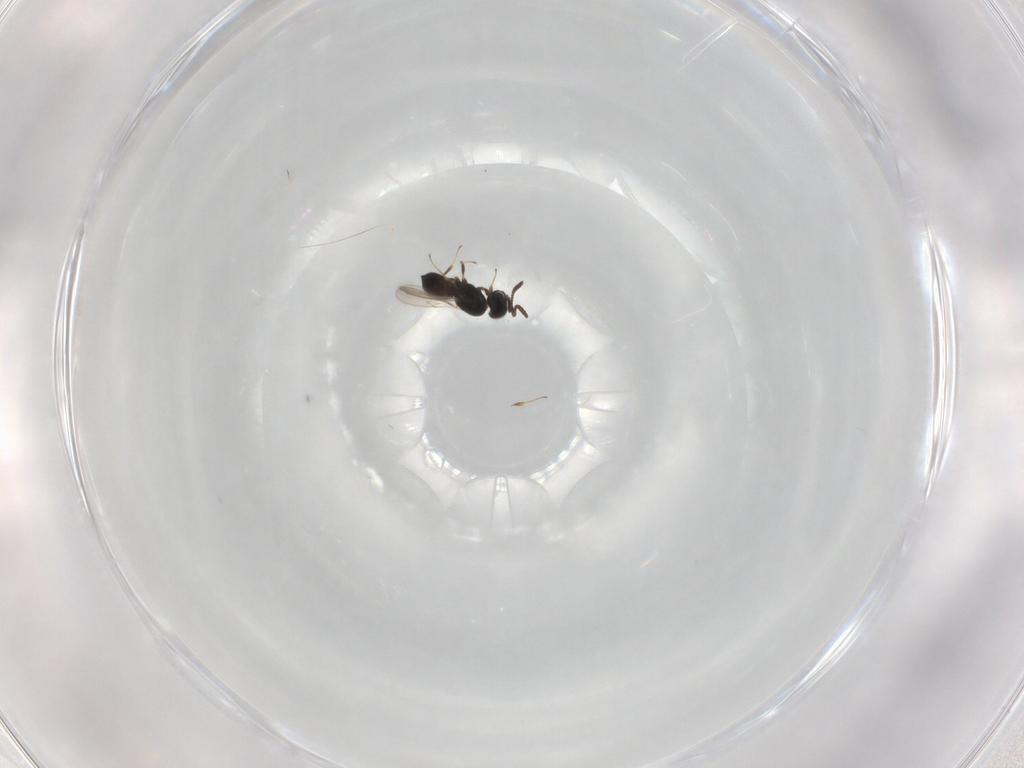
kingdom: Animalia
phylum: Arthropoda
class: Insecta
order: Hymenoptera
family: Scelionidae
